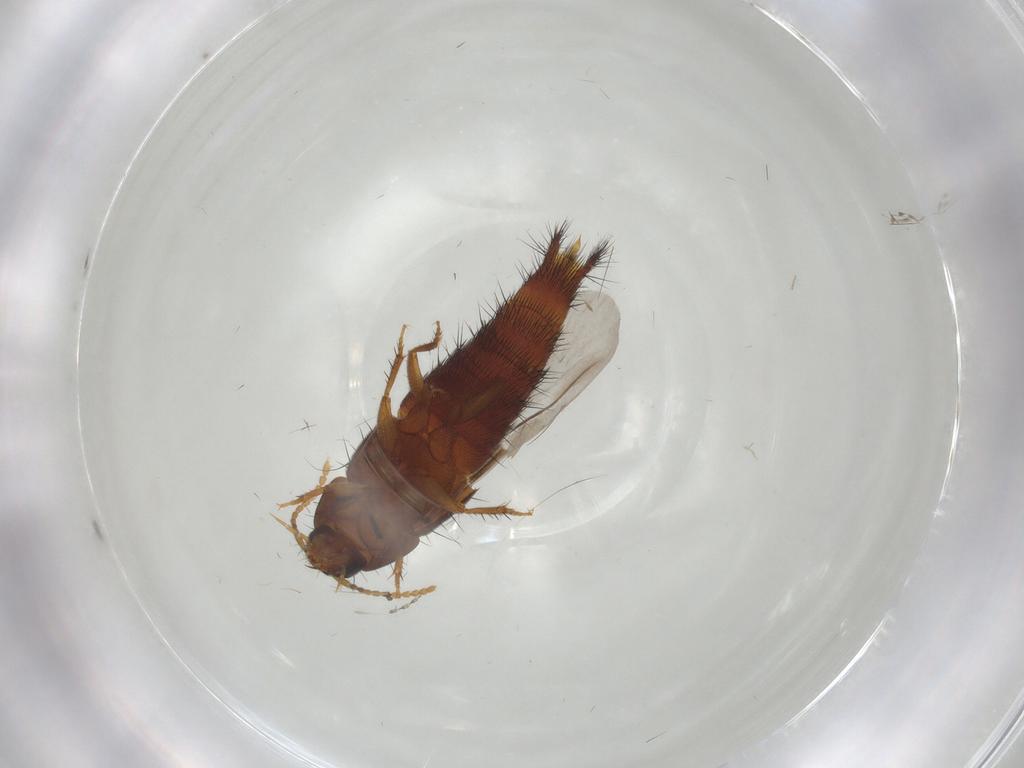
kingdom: Animalia
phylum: Arthropoda
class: Insecta
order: Coleoptera
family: Staphylinidae
